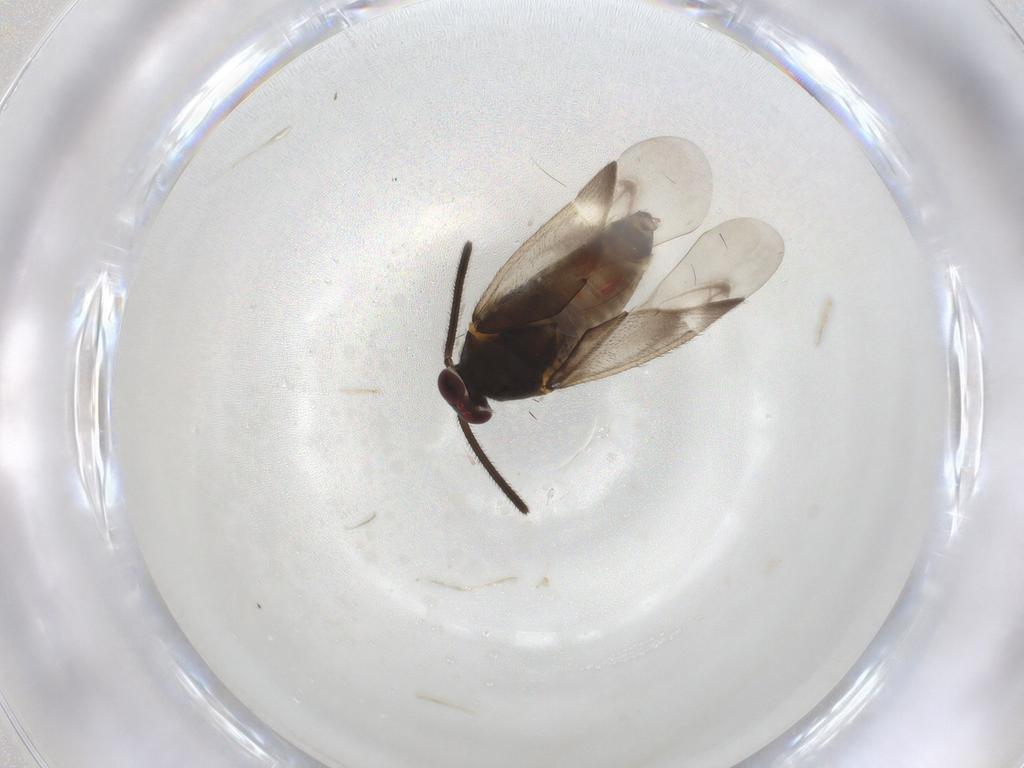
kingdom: Animalia
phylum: Arthropoda
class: Insecta
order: Hemiptera
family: Miridae
